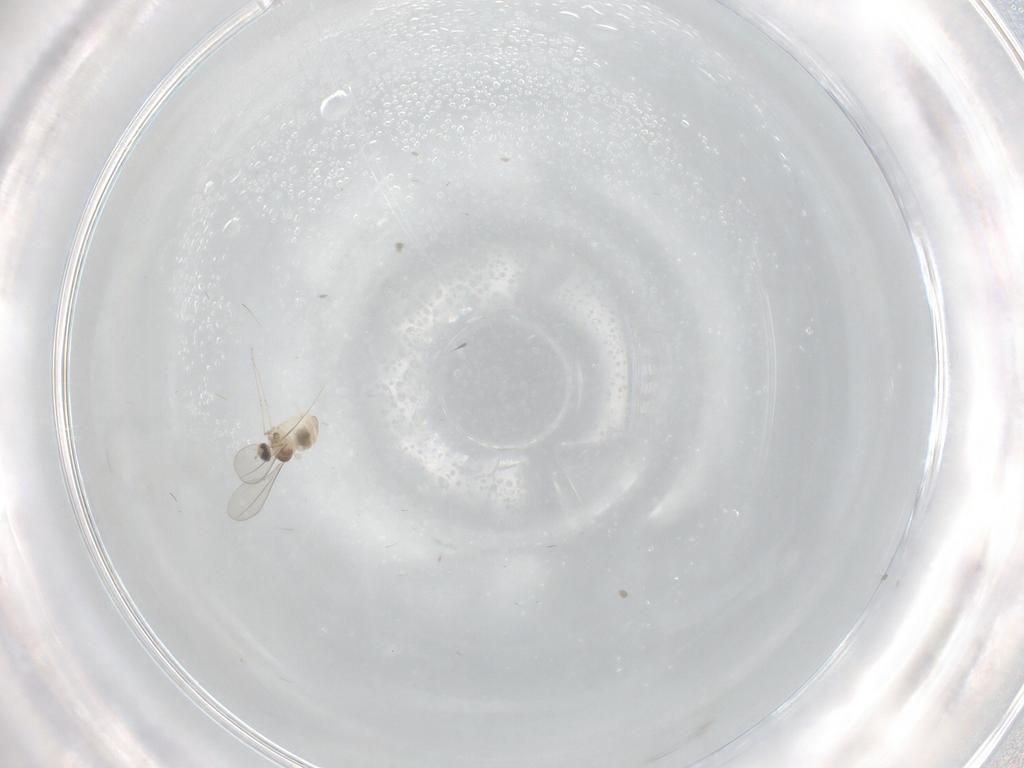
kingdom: Animalia
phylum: Arthropoda
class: Insecta
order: Diptera
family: Cecidomyiidae
